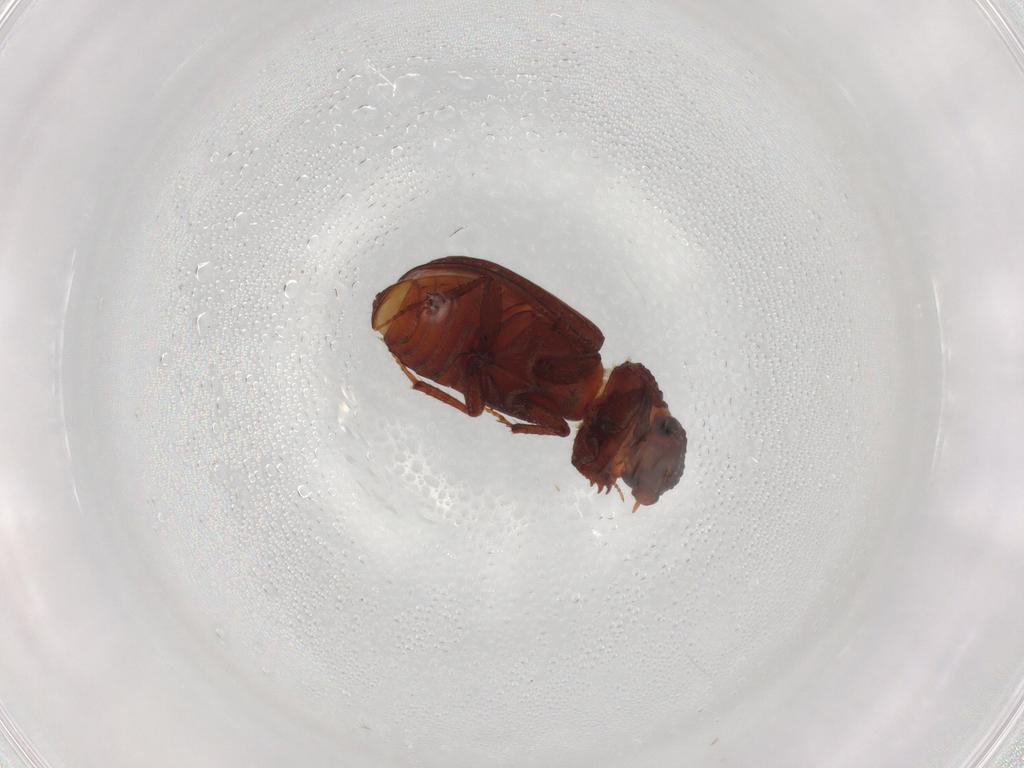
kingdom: Animalia
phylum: Arthropoda
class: Insecta
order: Coleoptera
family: Scarabaeidae
